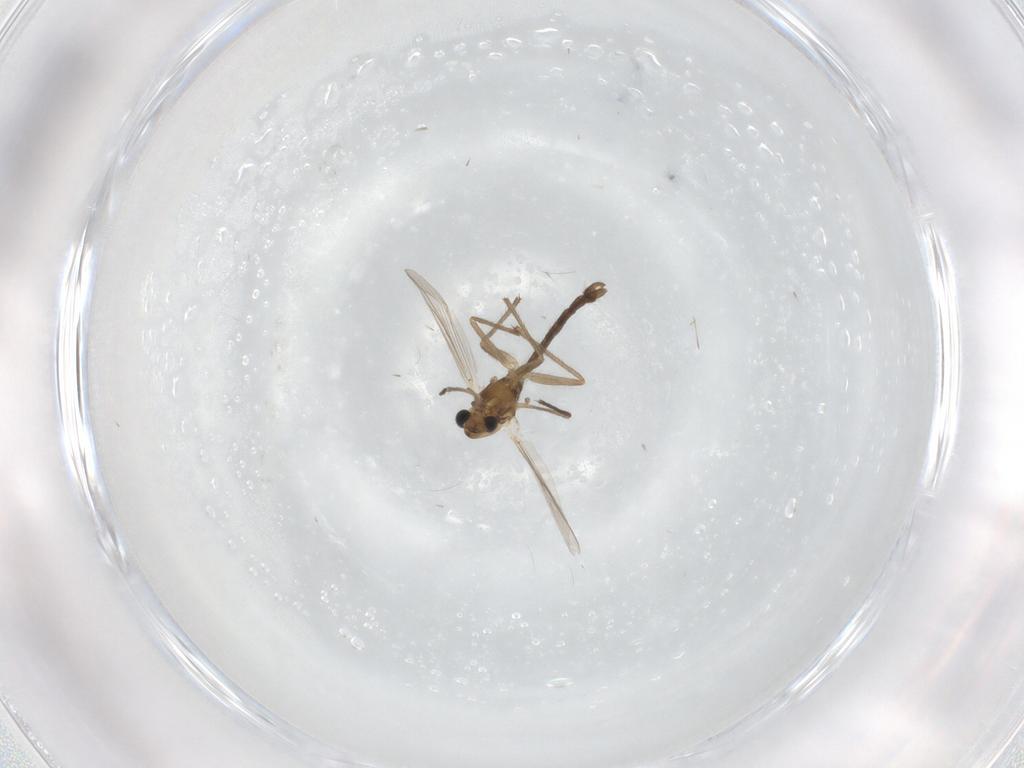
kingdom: Animalia
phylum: Arthropoda
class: Insecta
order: Diptera
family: Chironomidae
